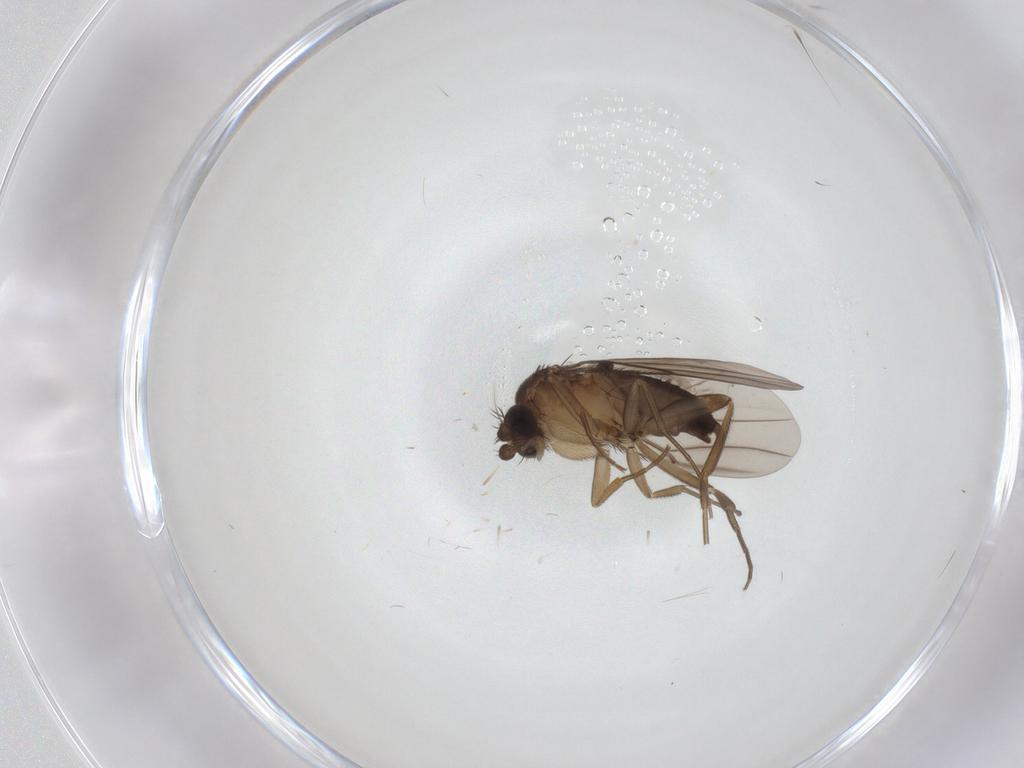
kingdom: Animalia
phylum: Arthropoda
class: Insecta
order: Diptera
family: Phoridae
